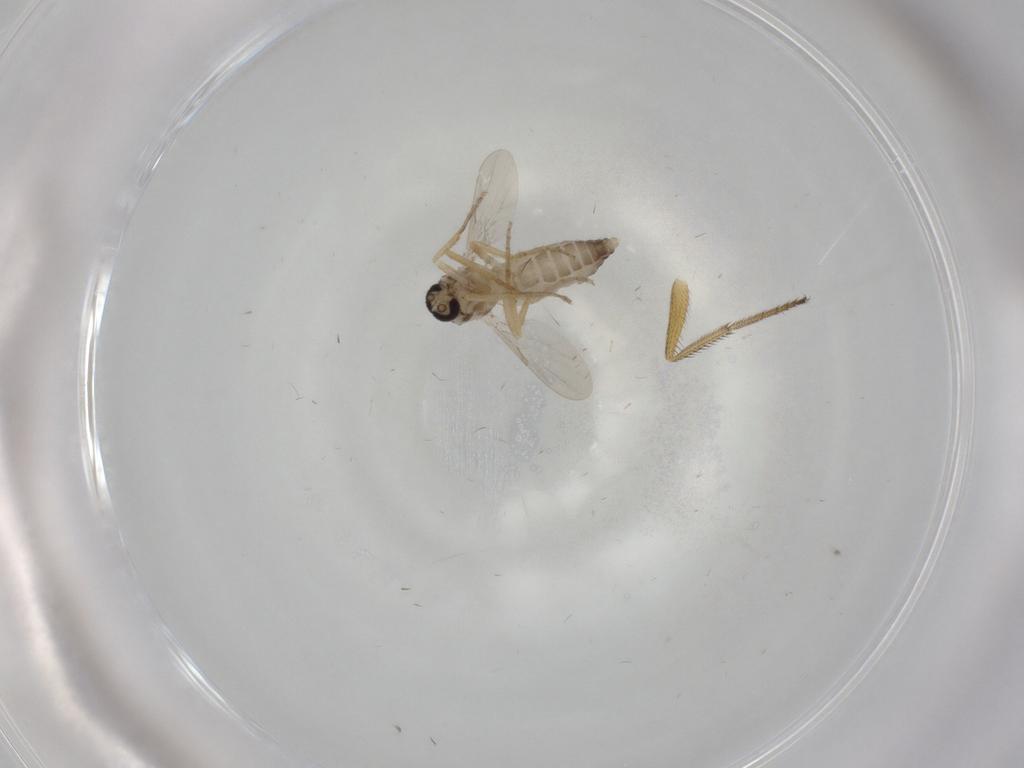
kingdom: Animalia
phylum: Arthropoda
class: Insecta
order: Diptera
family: Ceratopogonidae
